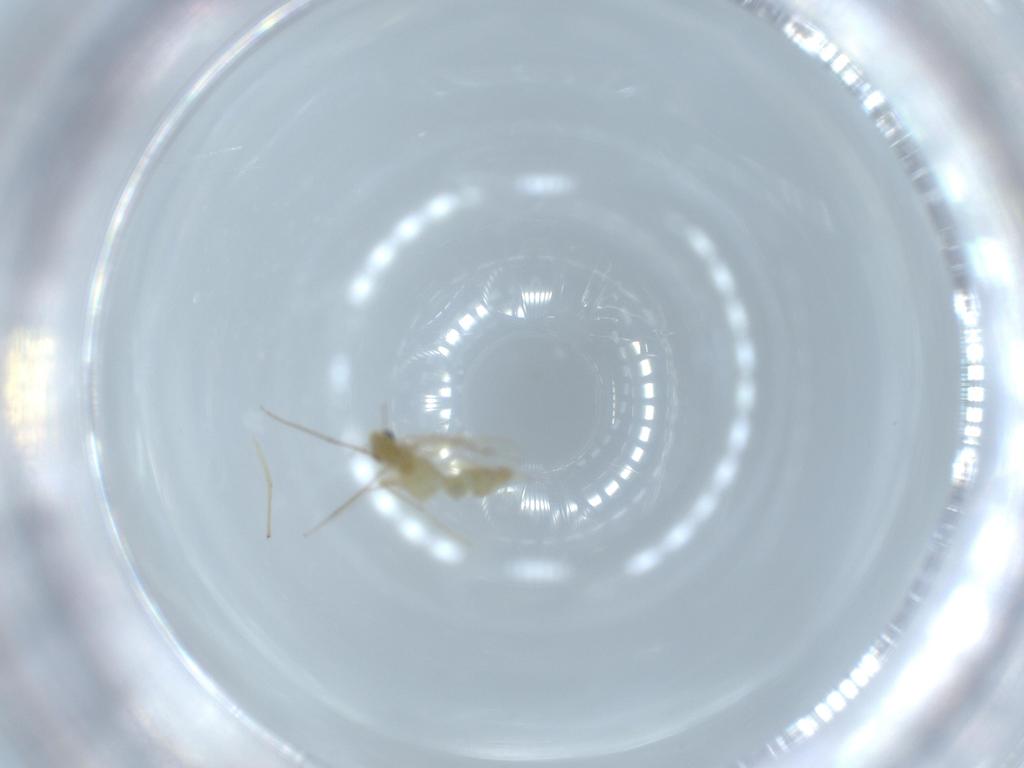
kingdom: Animalia
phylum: Arthropoda
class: Insecta
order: Diptera
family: Chironomidae
